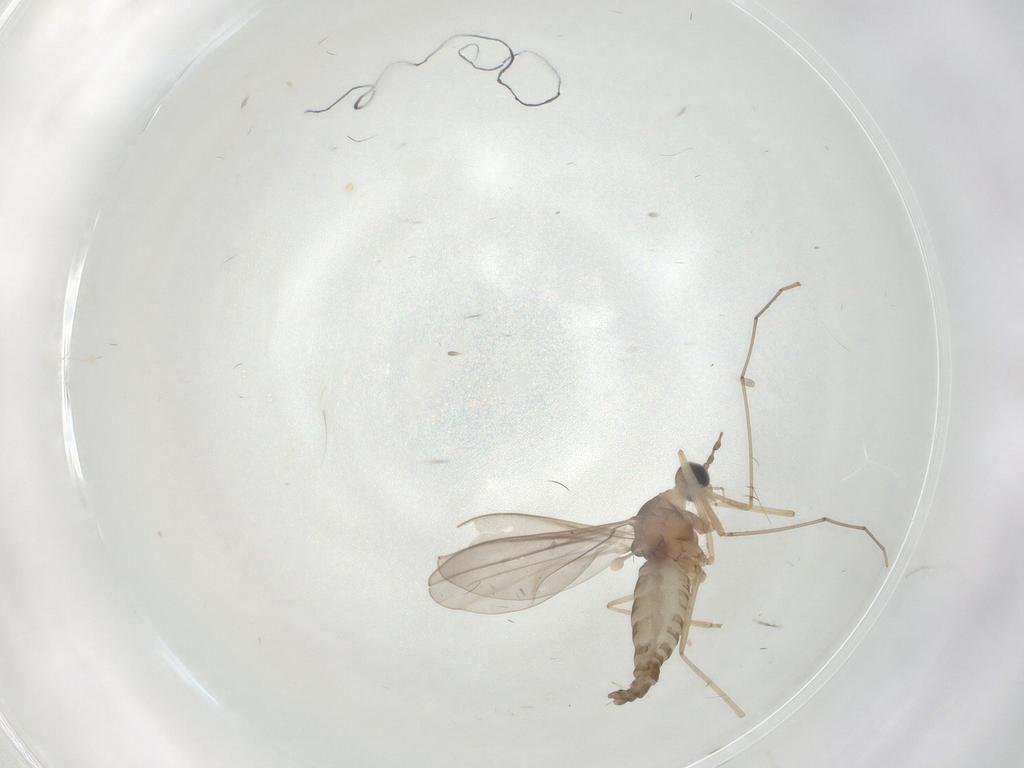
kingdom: Animalia
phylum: Arthropoda
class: Insecta
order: Diptera
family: Cecidomyiidae
